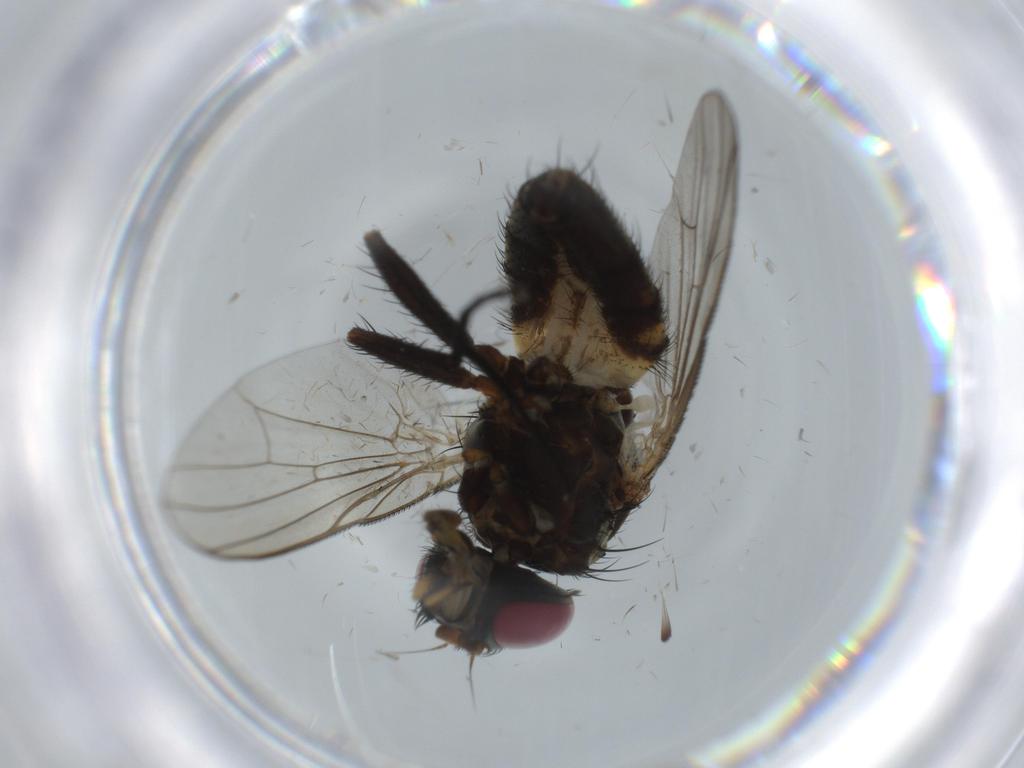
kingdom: Animalia
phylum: Arthropoda
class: Insecta
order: Diptera
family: Fannia
